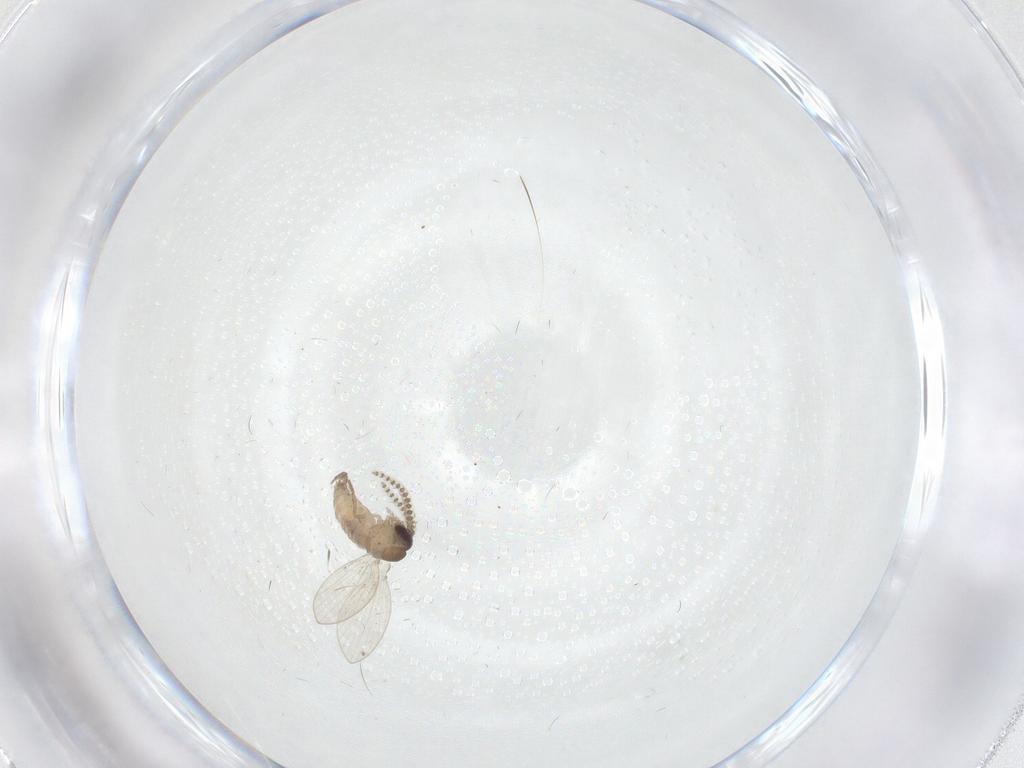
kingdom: Animalia
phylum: Arthropoda
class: Insecta
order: Diptera
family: Psychodidae
